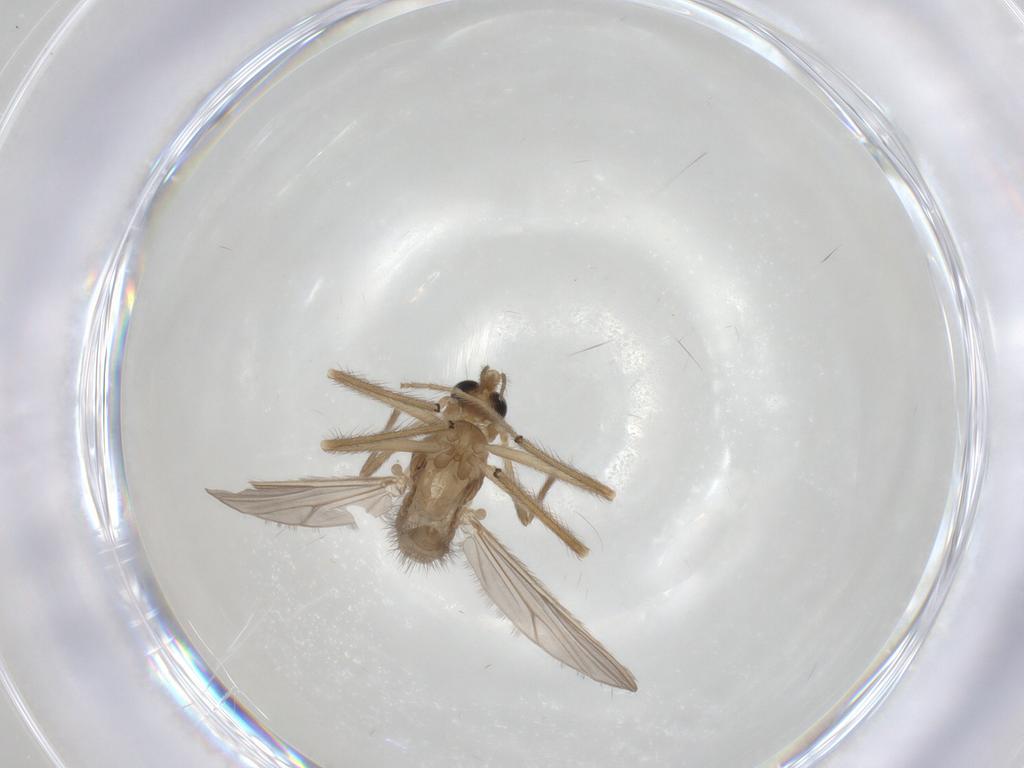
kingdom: Animalia
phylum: Arthropoda
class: Insecta
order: Diptera
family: Chironomidae
